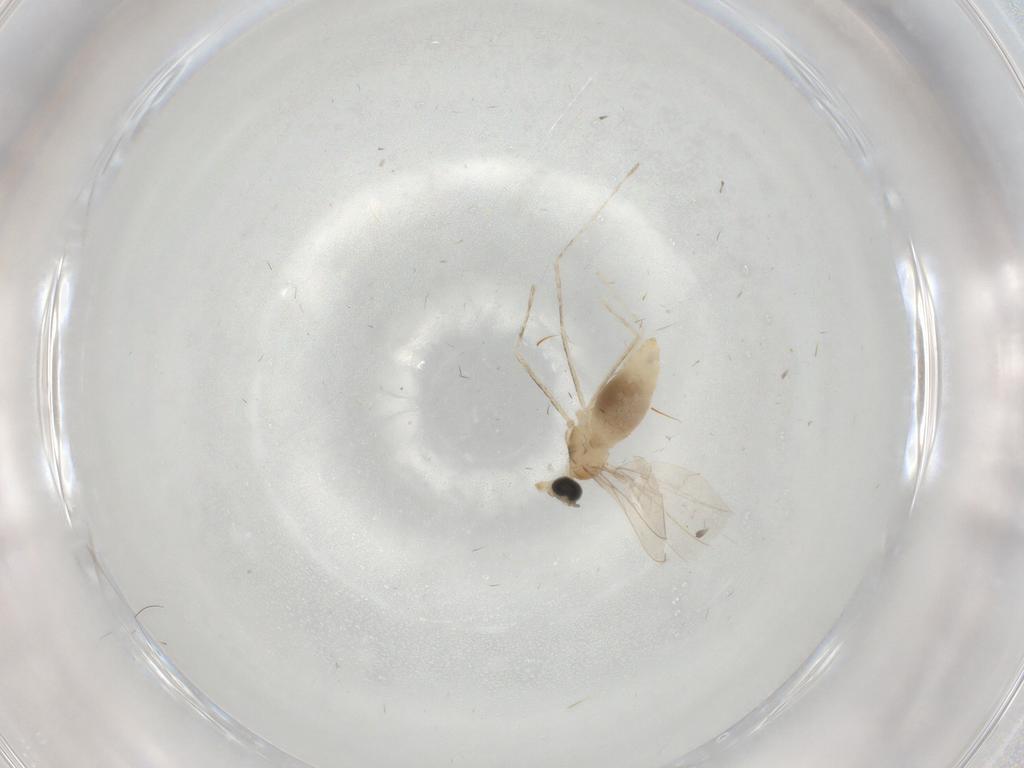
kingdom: Animalia
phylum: Arthropoda
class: Insecta
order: Diptera
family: Cecidomyiidae
